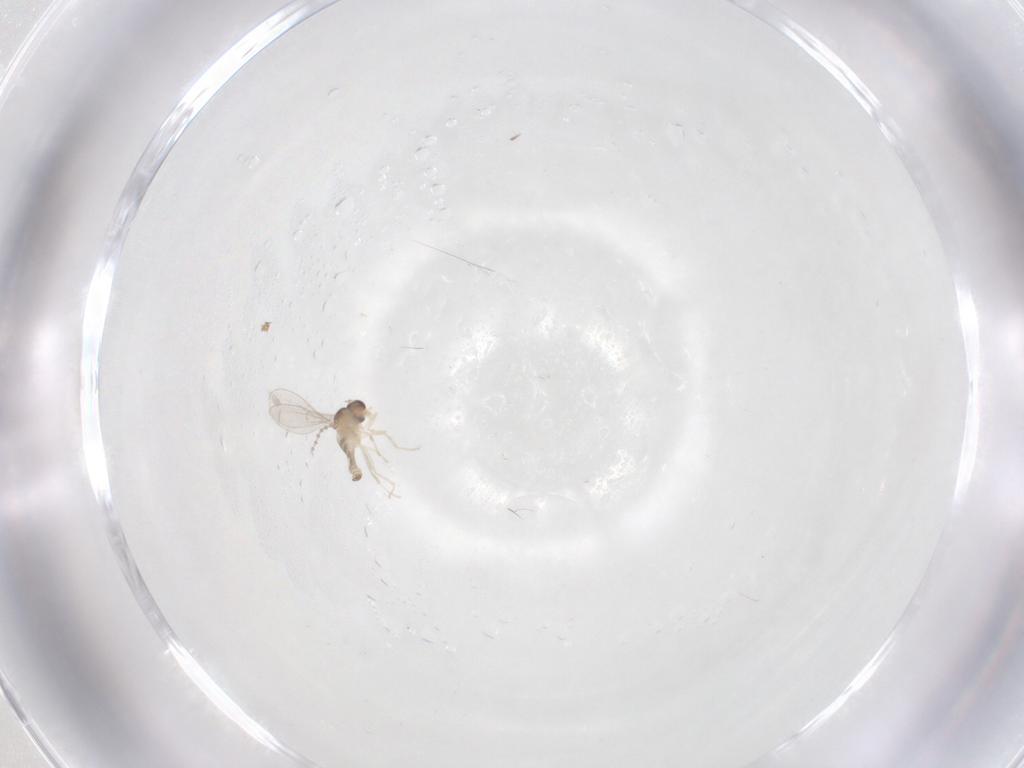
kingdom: Animalia
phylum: Arthropoda
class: Insecta
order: Diptera
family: Cecidomyiidae
